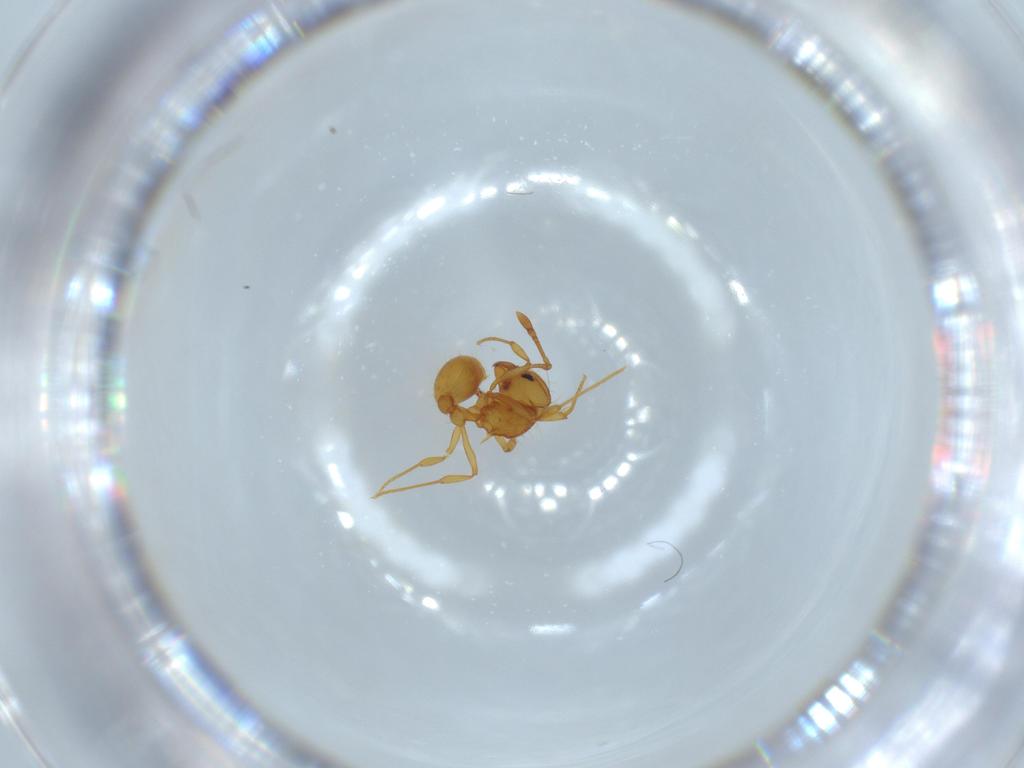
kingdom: Animalia
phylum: Arthropoda
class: Insecta
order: Hymenoptera
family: Formicidae
